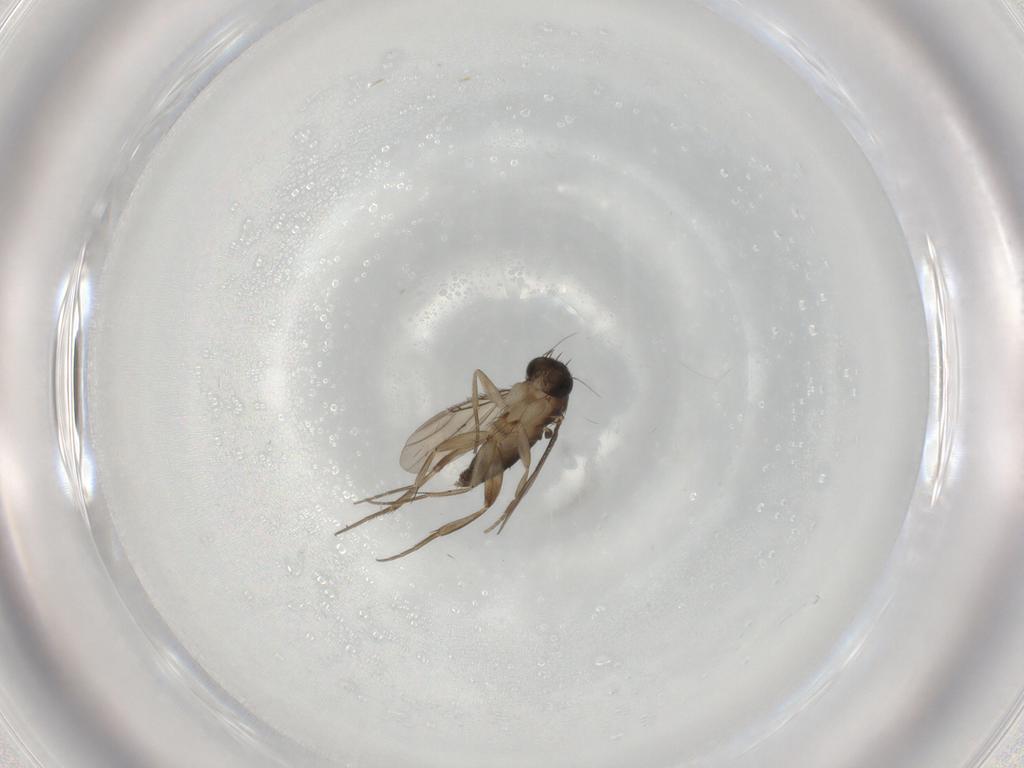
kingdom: Animalia
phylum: Arthropoda
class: Insecta
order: Diptera
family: Phoridae
